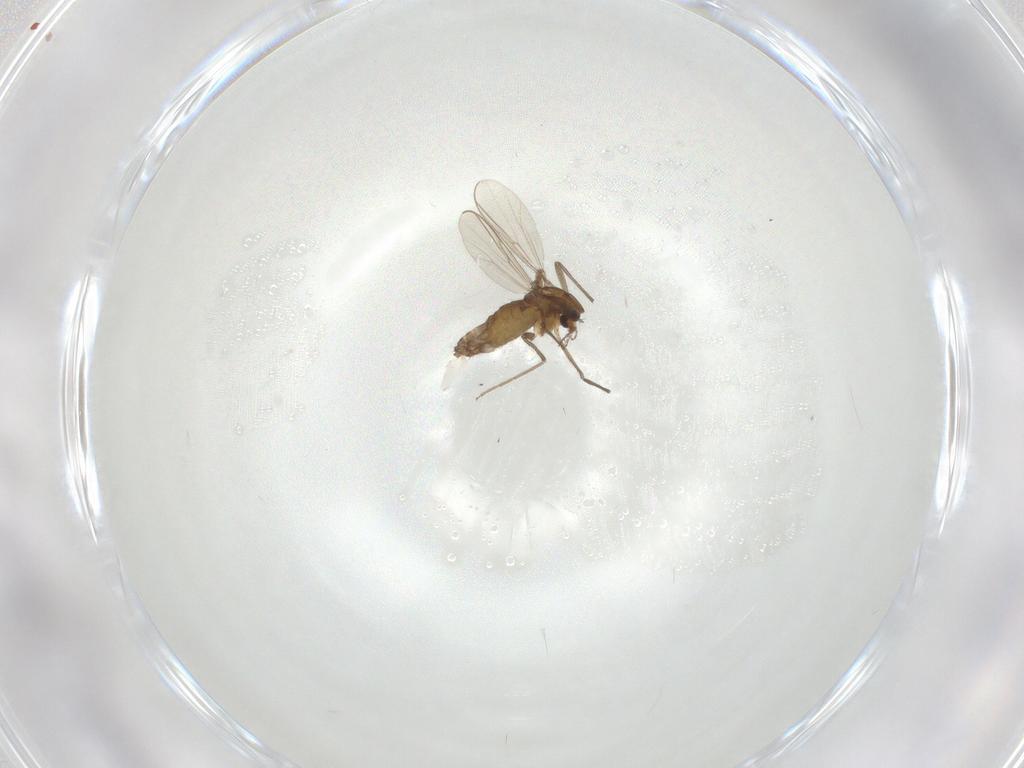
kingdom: Animalia
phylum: Arthropoda
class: Insecta
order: Diptera
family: Chironomidae
